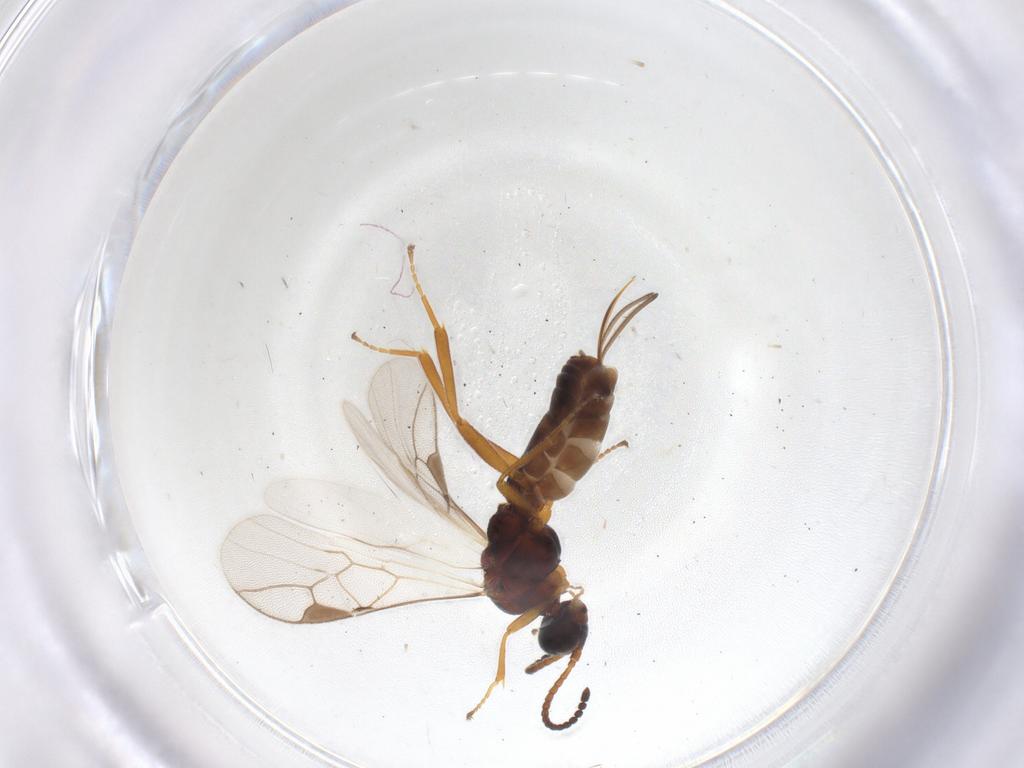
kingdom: Animalia
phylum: Arthropoda
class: Insecta
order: Hymenoptera
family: Braconidae
